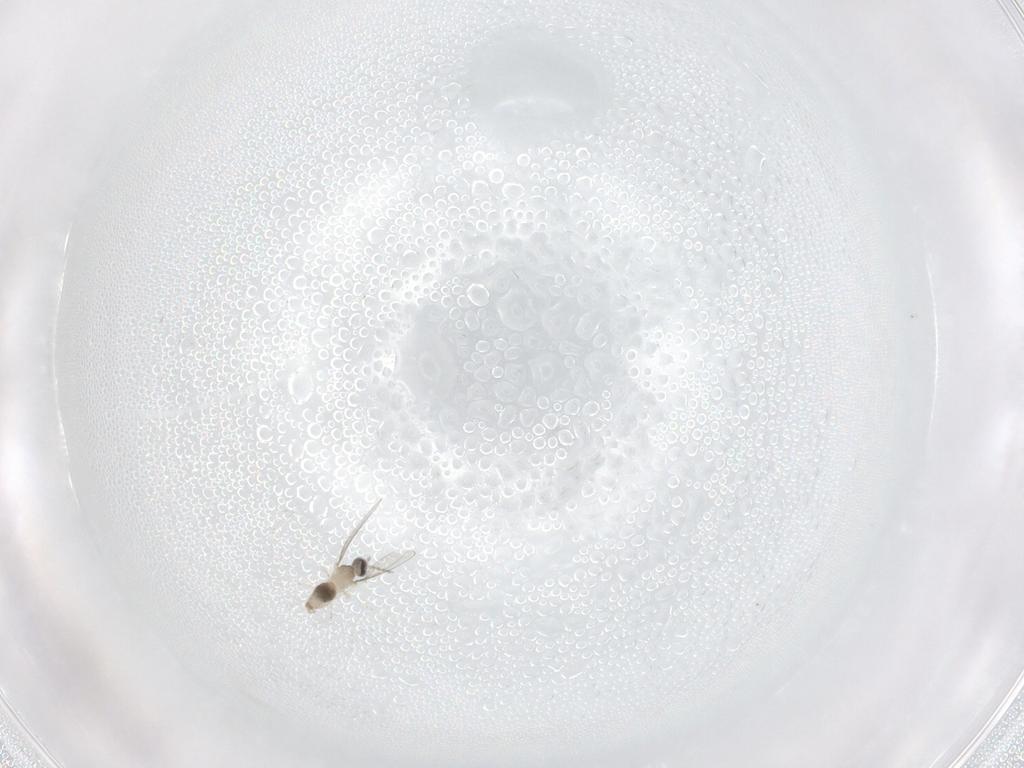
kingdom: Animalia
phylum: Arthropoda
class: Insecta
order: Diptera
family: Cecidomyiidae
